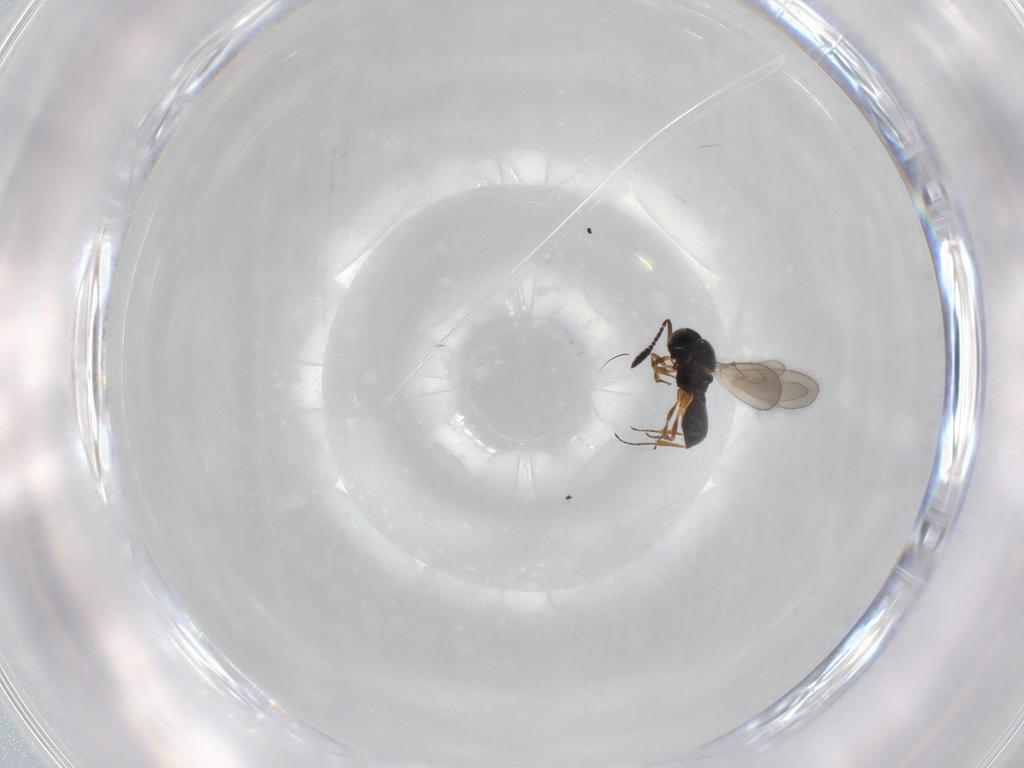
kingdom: Animalia
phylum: Arthropoda
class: Insecta
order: Hymenoptera
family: Scelionidae
